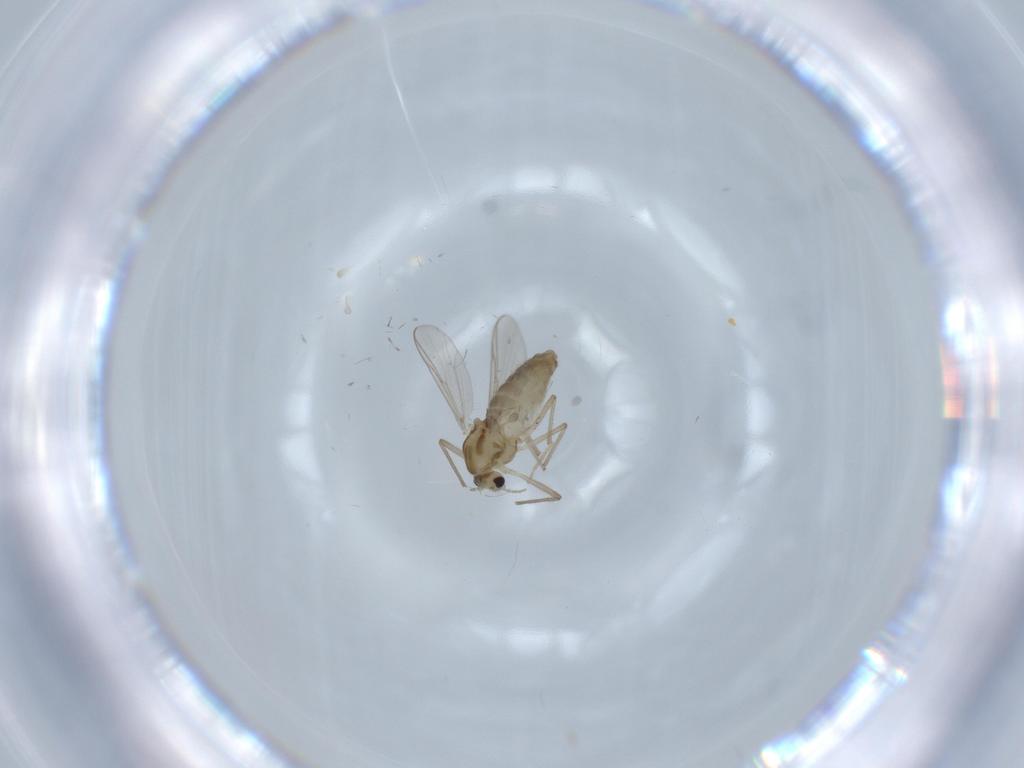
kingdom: Animalia
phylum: Arthropoda
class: Insecta
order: Diptera
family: Chironomidae
